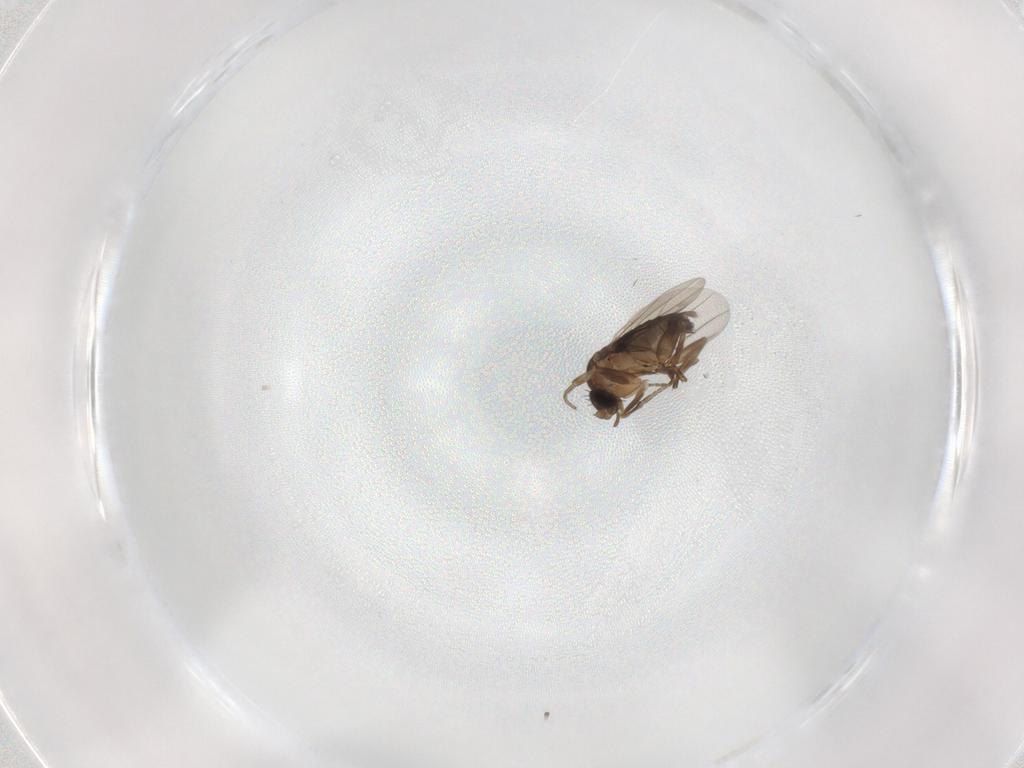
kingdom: Animalia
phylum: Arthropoda
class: Insecta
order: Diptera
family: Phoridae
